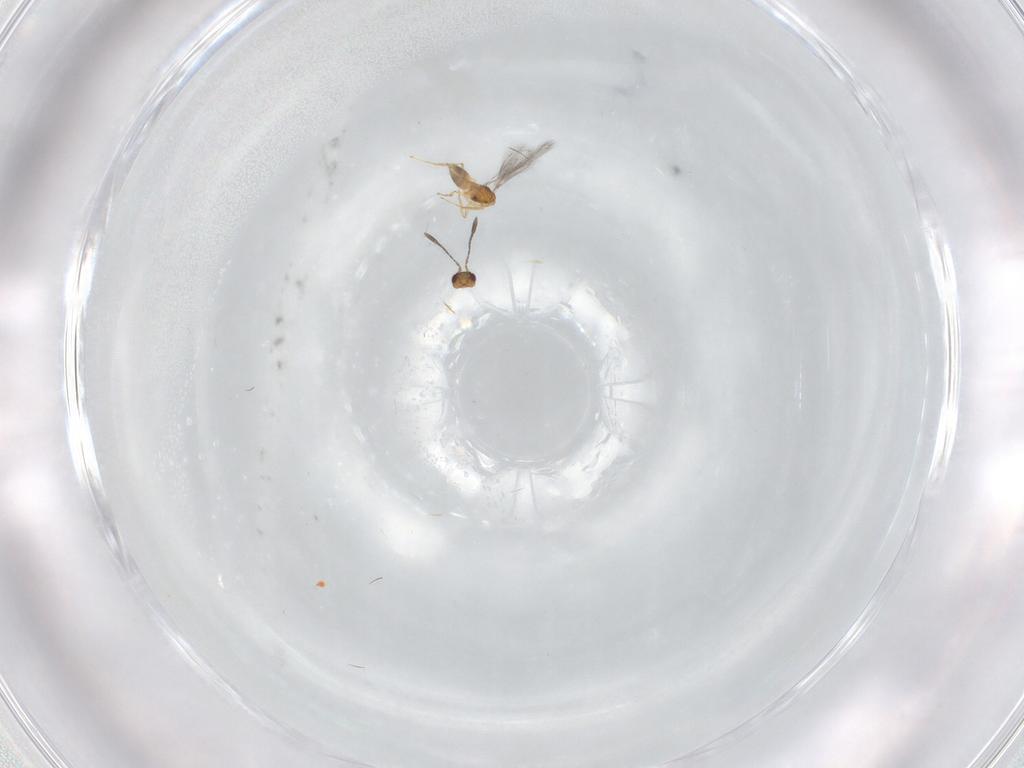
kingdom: Animalia
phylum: Arthropoda
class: Insecta
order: Hymenoptera
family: Mymaridae
